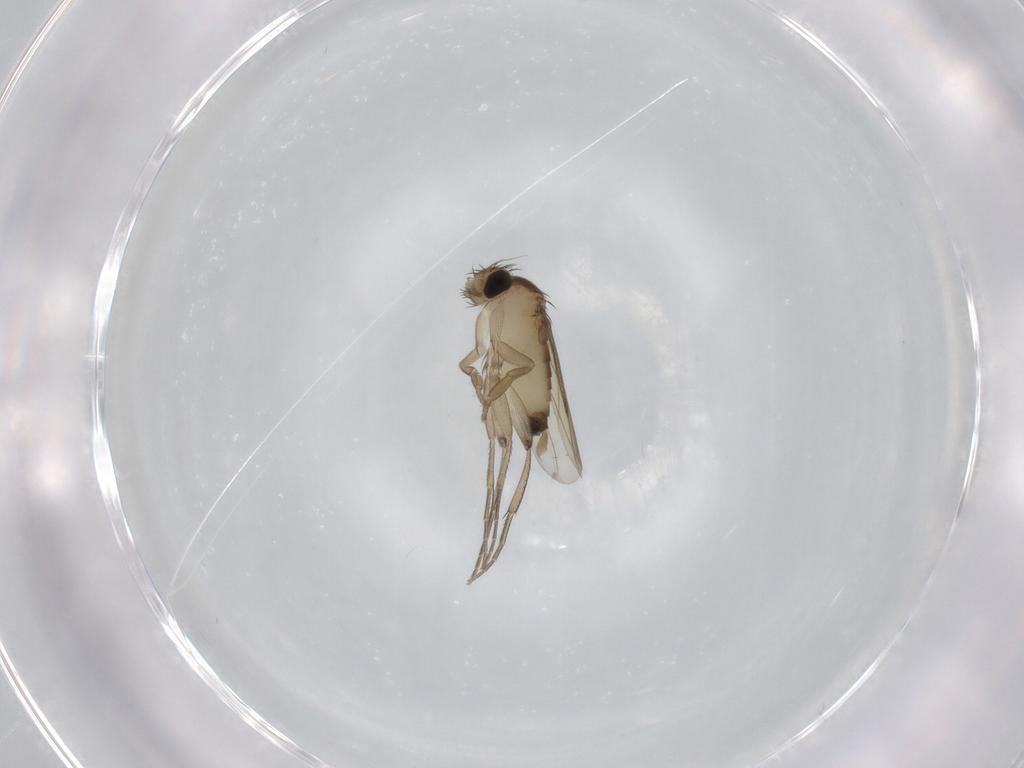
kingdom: Animalia
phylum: Arthropoda
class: Insecta
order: Diptera
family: Phoridae
